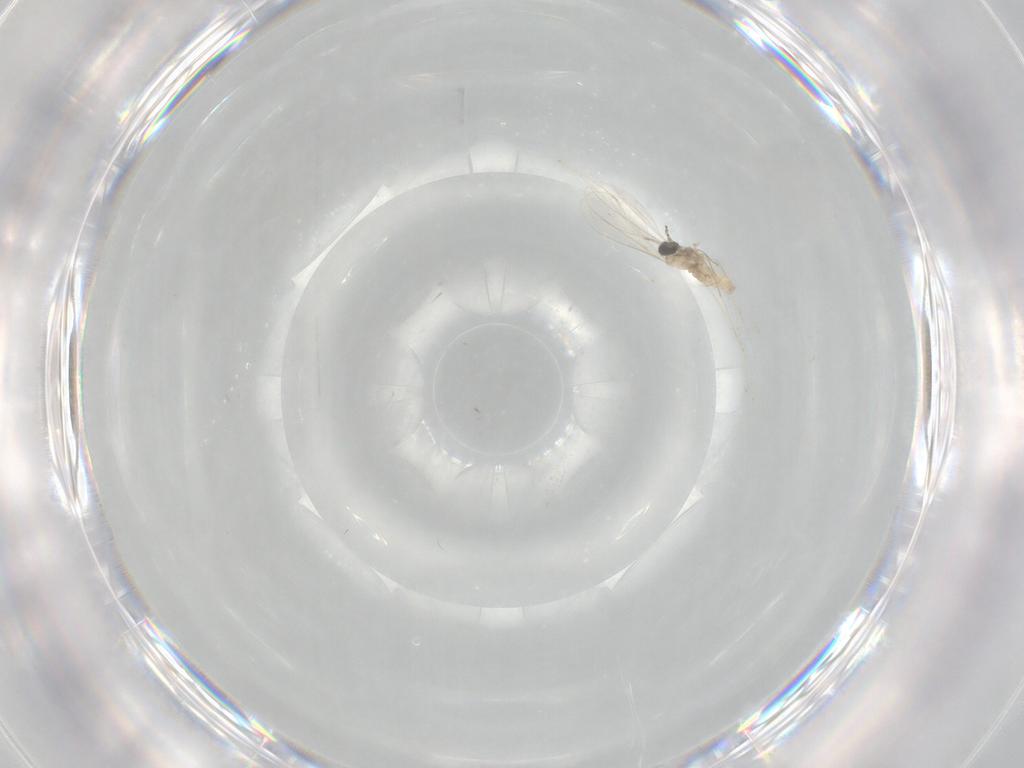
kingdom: Animalia
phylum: Arthropoda
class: Insecta
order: Diptera
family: Cecidomyiidae
